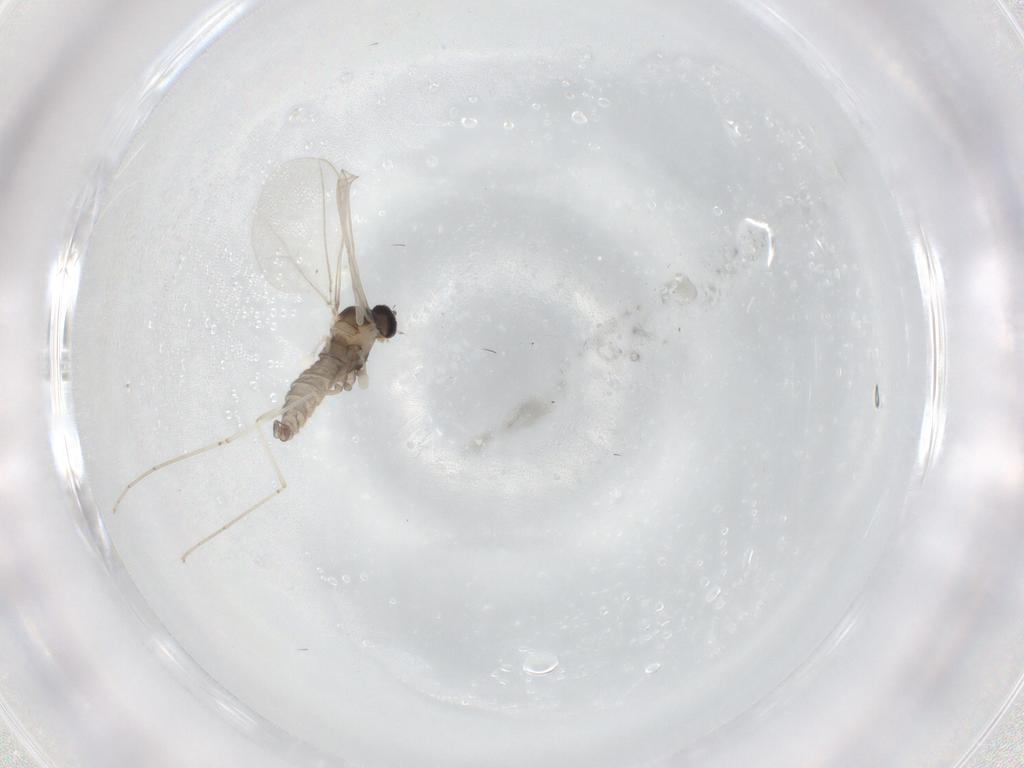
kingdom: Animalia
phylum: Arthropoda
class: Insecta
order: Diptera
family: Cecidomyiidae
